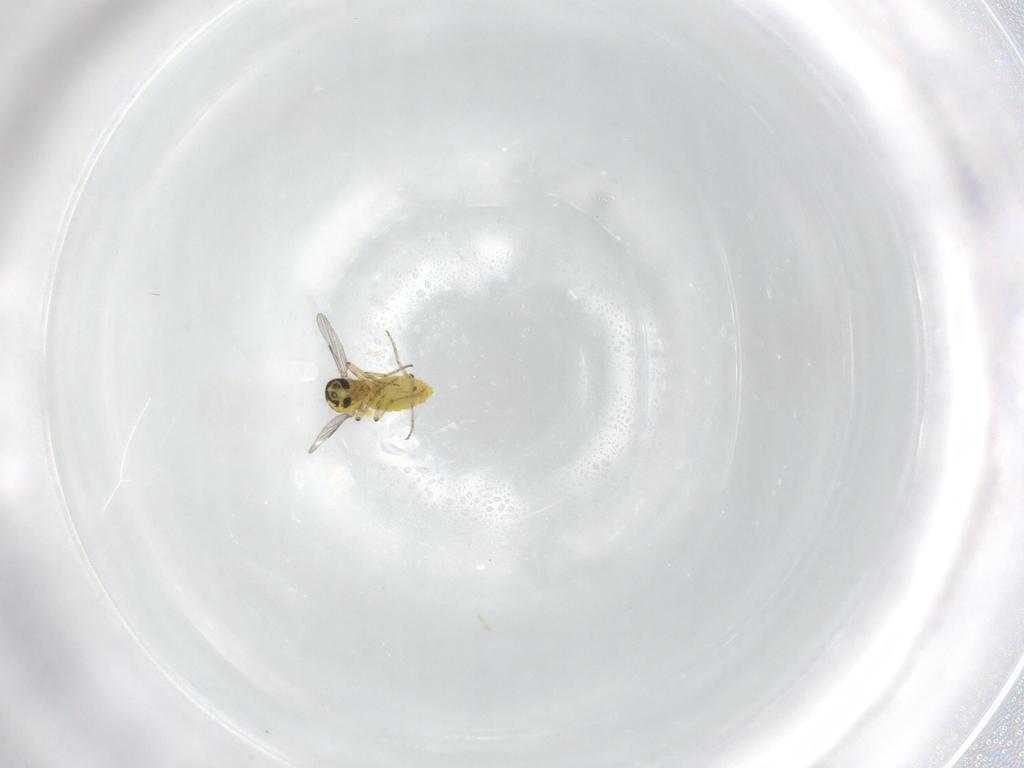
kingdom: Animalia
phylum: Arthropoda
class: Insecta
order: Diptera
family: Ceratopogonidae
